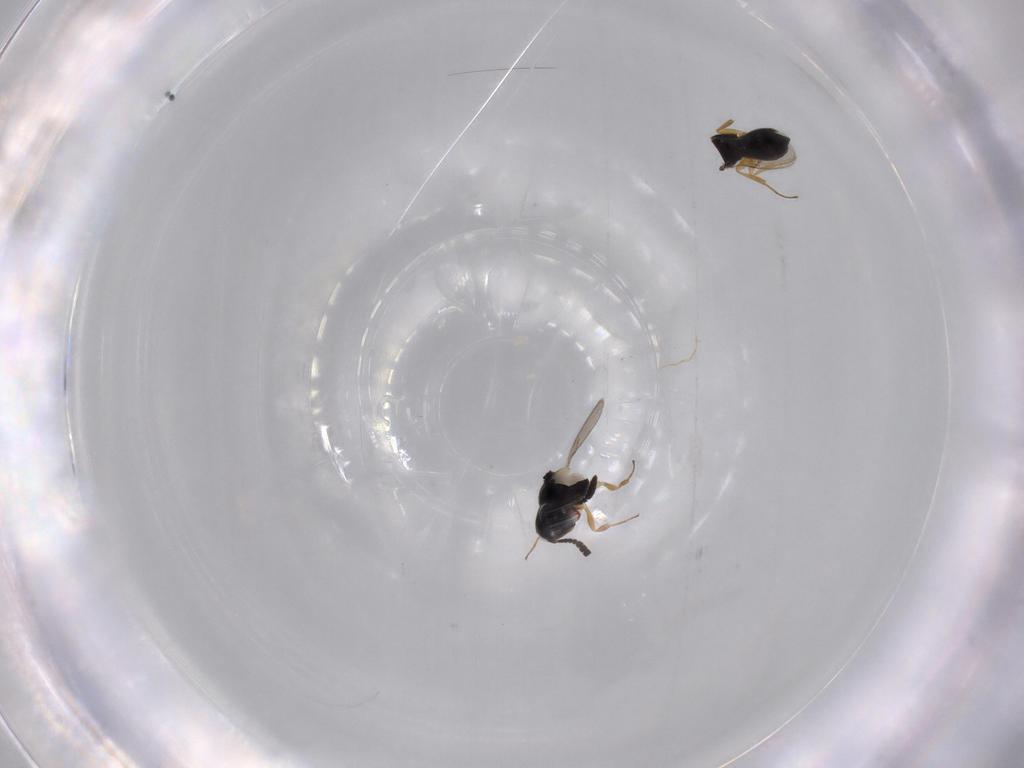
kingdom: Animalia
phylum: Arthropoda
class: Insecta
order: Hymenoptera
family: Scelionidae
